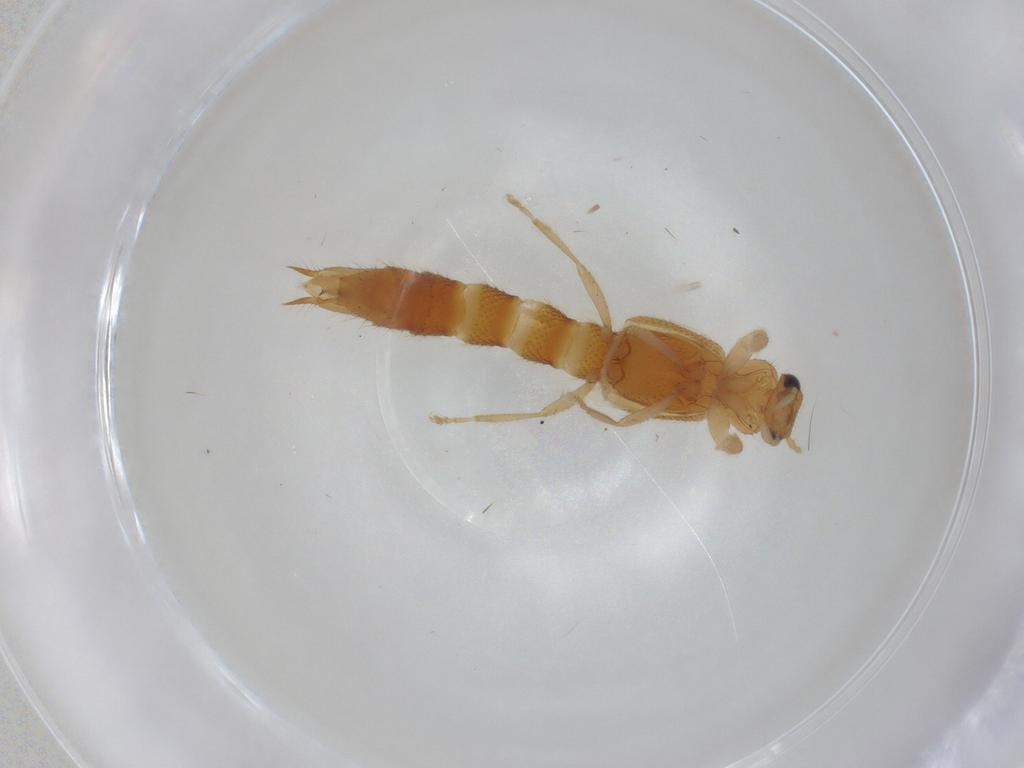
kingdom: Animalia
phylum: Arthropoda
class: Insecta
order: Coleoptera
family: Staphylinidae
